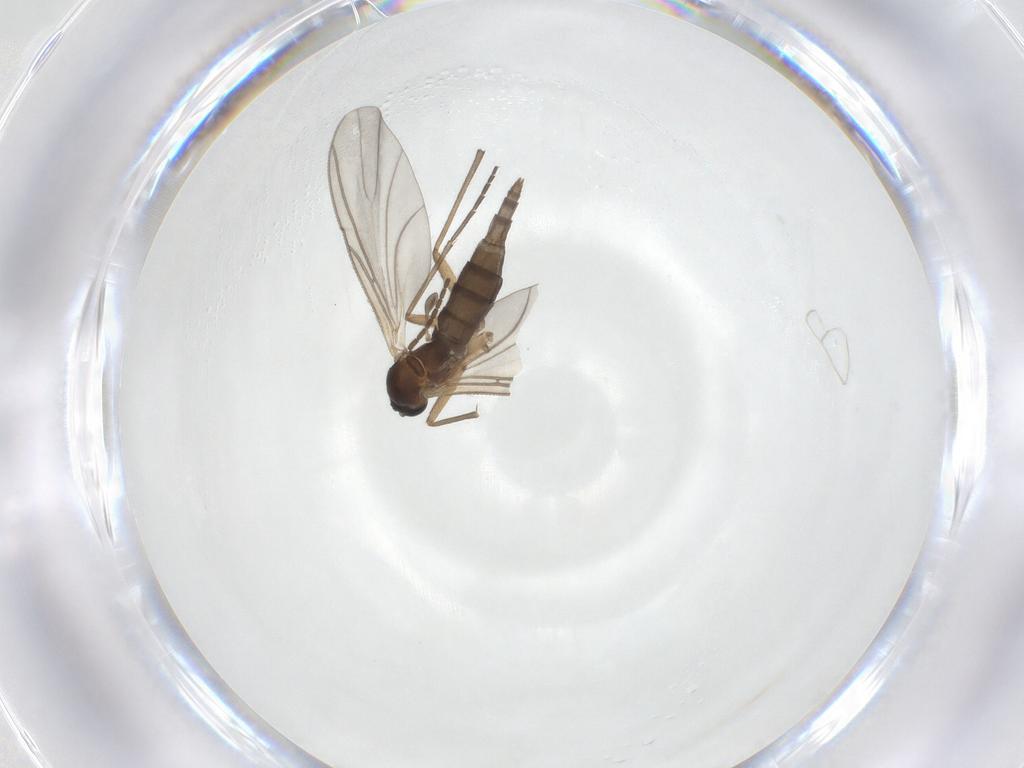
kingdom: Animalia
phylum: Arthropoda
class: Insecta
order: Diptera
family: Sciaridae
